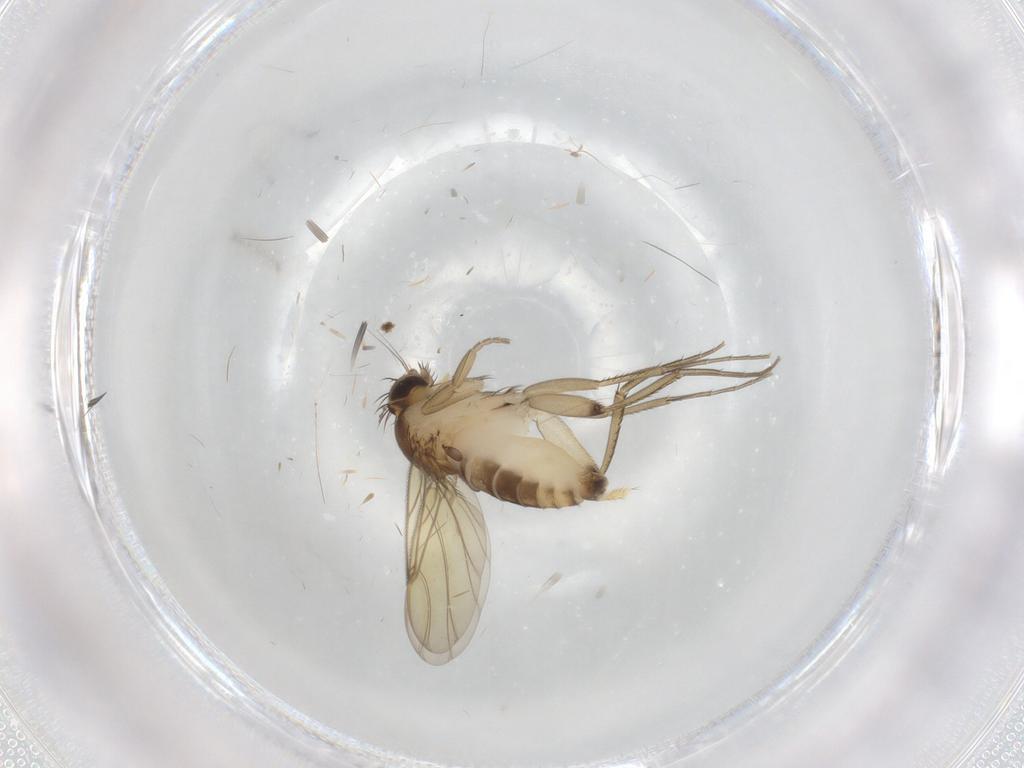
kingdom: Animalia
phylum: Arthropoda
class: Insecta
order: Diptera
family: Phoridae
